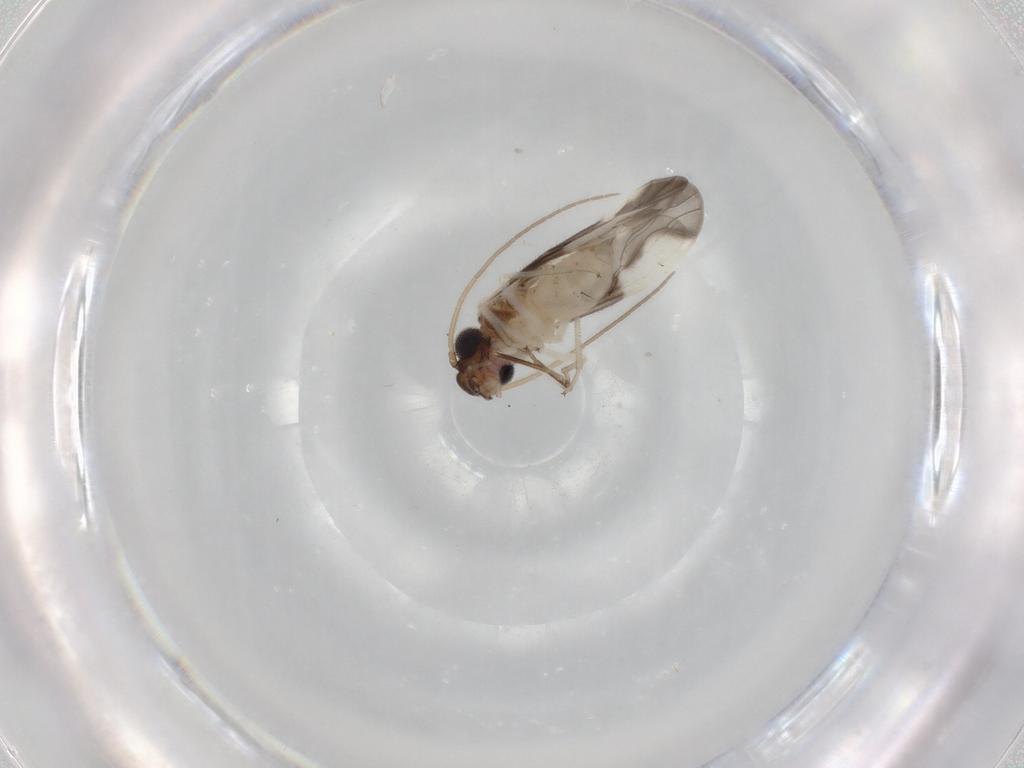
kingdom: Animalia
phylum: Arthropoda
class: Insecta
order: Psocodea
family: Caeciliusidae
